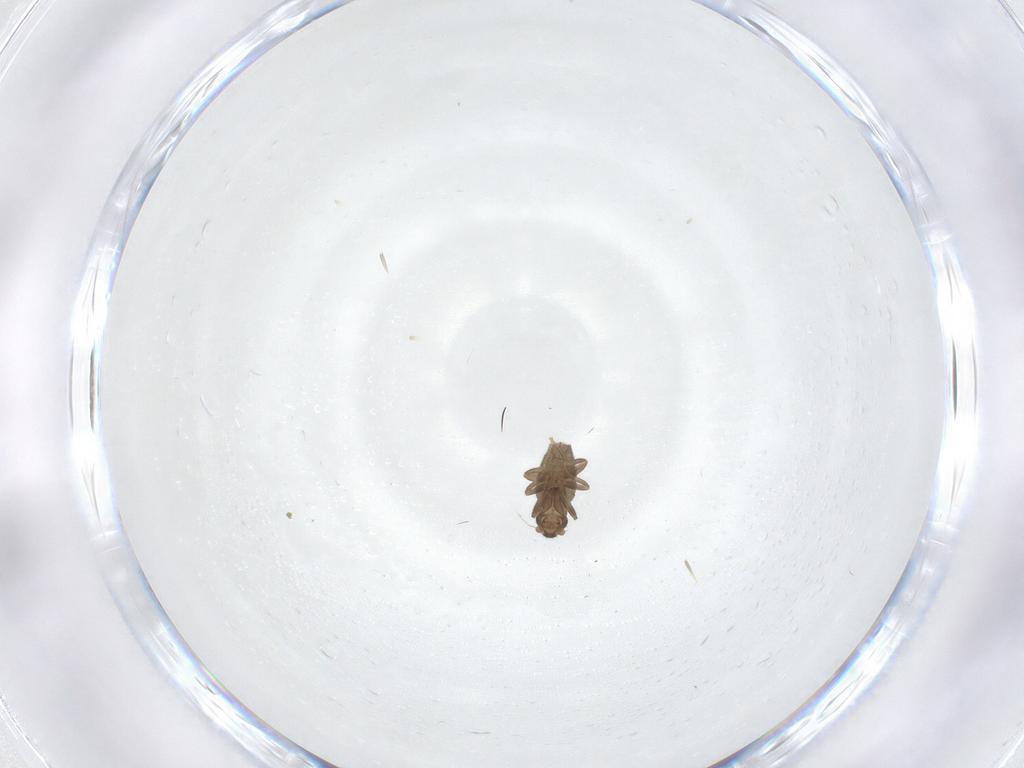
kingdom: Animalia
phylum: Arthropoda
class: Insecta
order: Diptera
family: Phoridae
